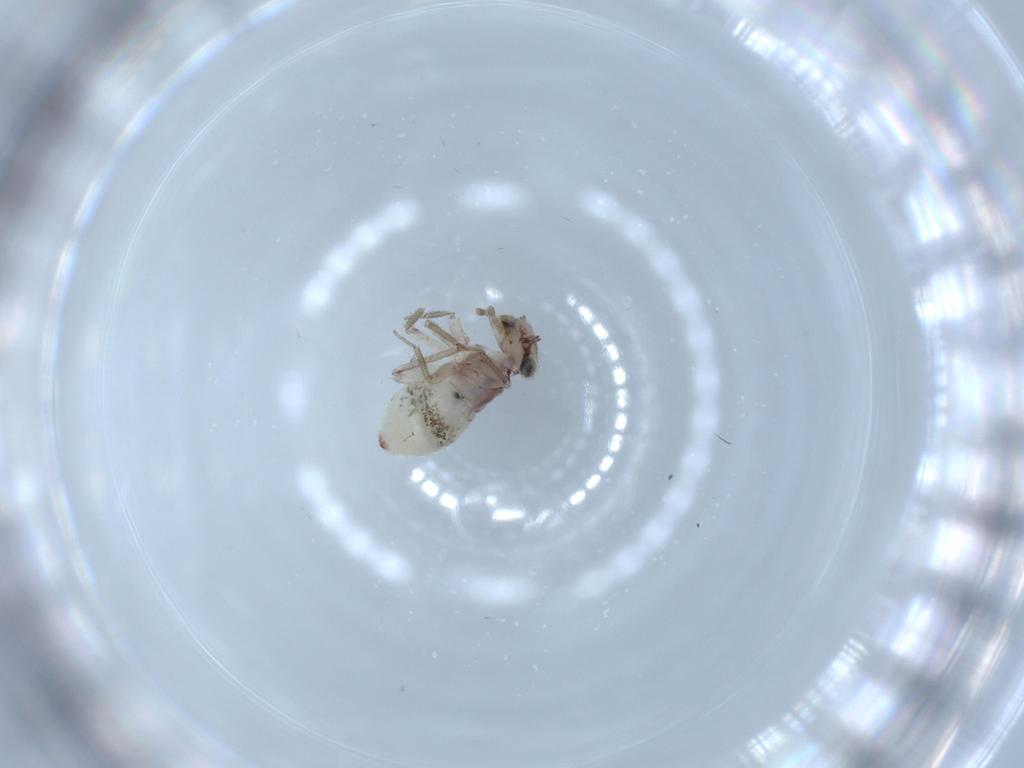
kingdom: Animalia
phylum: Arthropoda
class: Insecta
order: Psocodea
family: Lepidopsocidae
